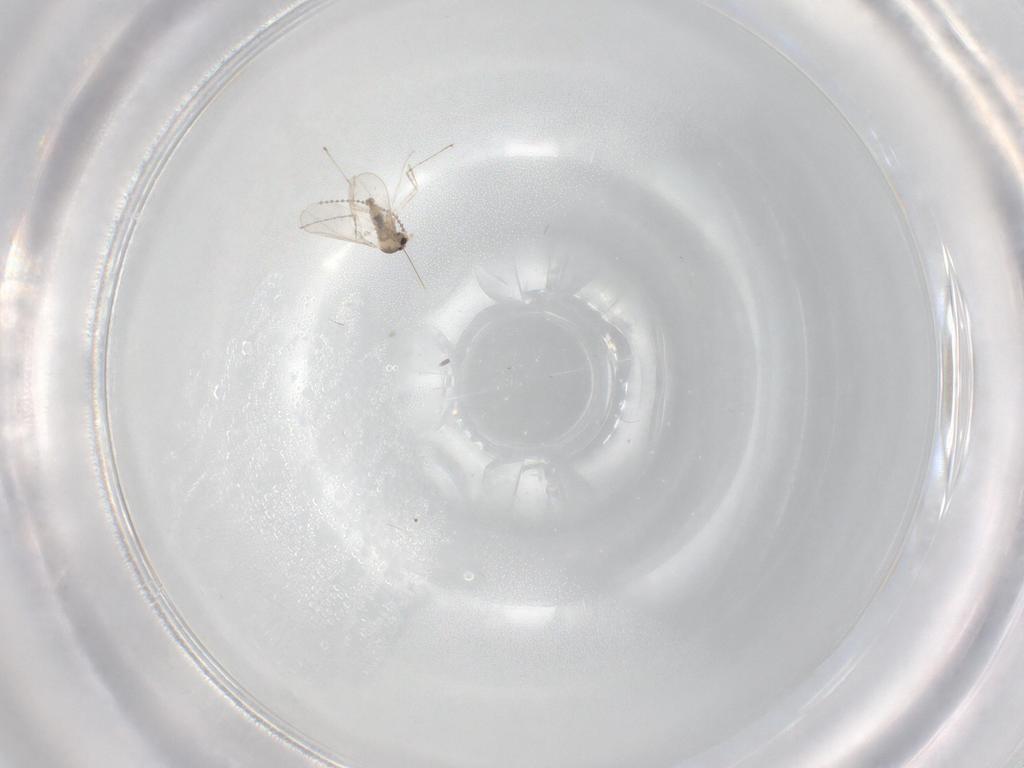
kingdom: Animalia
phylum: Arthropoda
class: Insecta
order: Diptera
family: Cecidomyiidae
